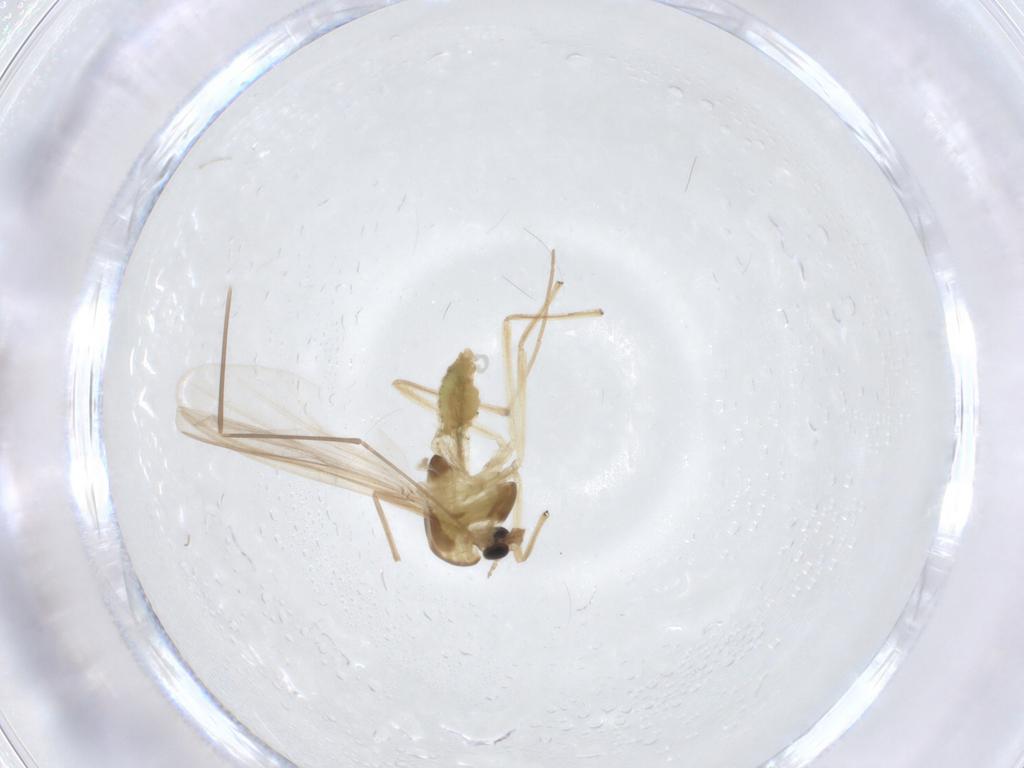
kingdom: Animalia
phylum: Arthropoda
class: Insecta
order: Diptera
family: Chironomidae
